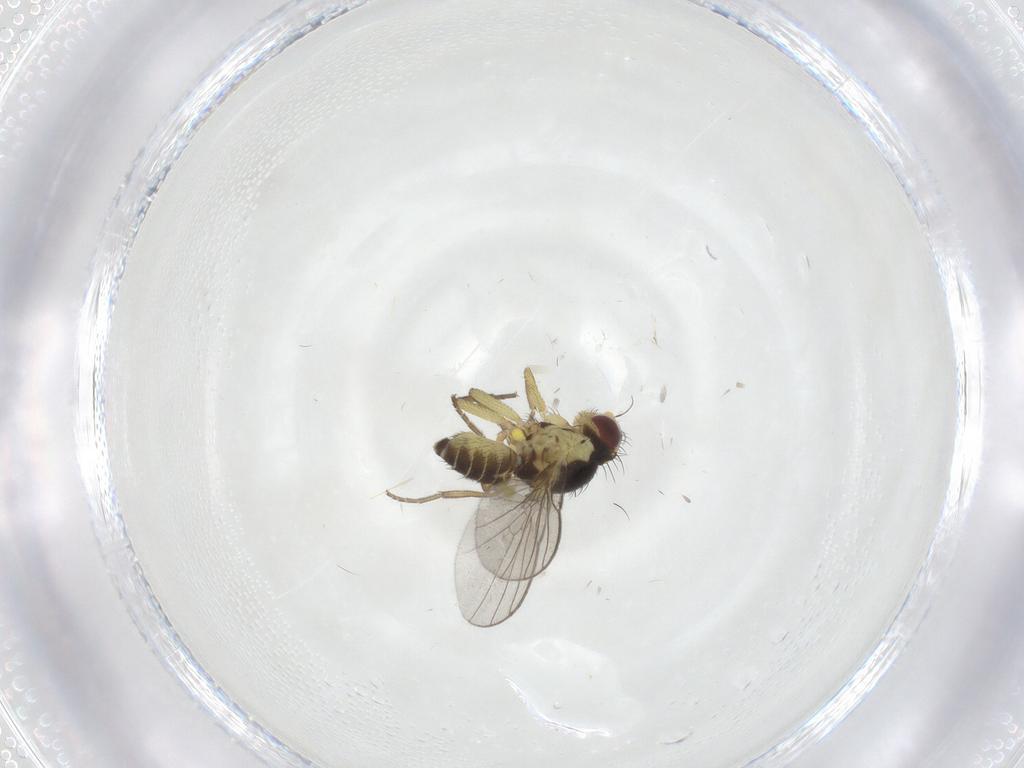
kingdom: Animalia
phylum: Arthropoda
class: Insecta
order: Diptera
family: Agromyzidae
